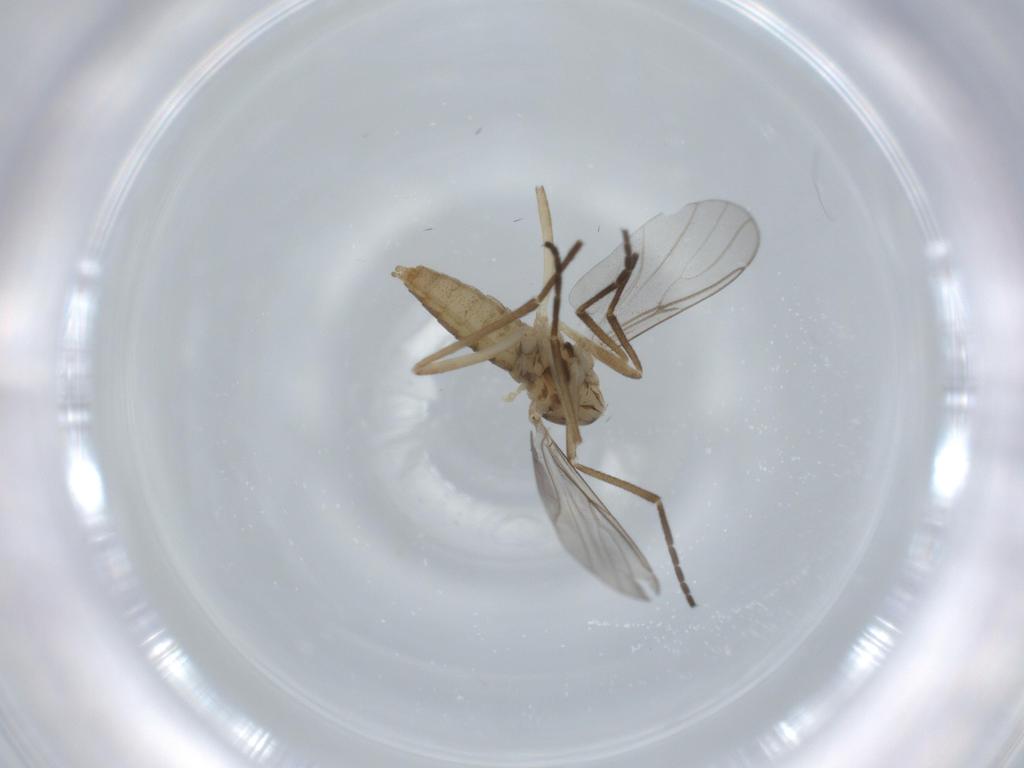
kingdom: Animalia
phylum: Arthropoda
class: Insecta
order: Diptera
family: Cecidomyiidae
